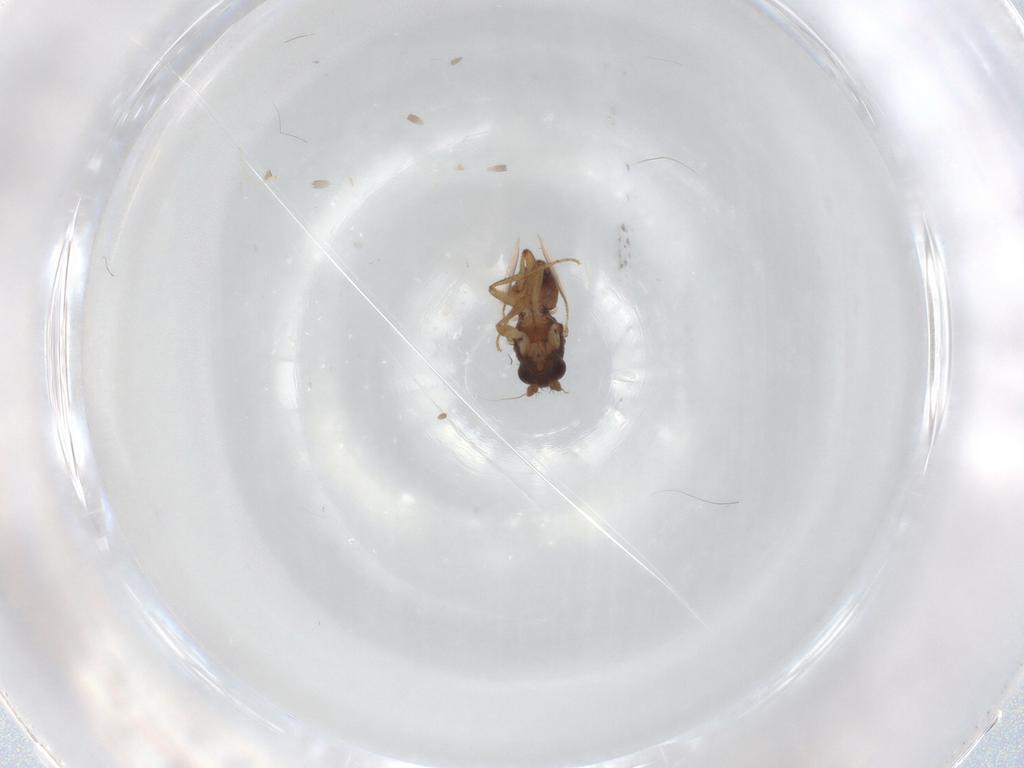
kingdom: Animalia
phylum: Arthropoda
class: Insecta
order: Diptera
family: Sphaeroceridae
